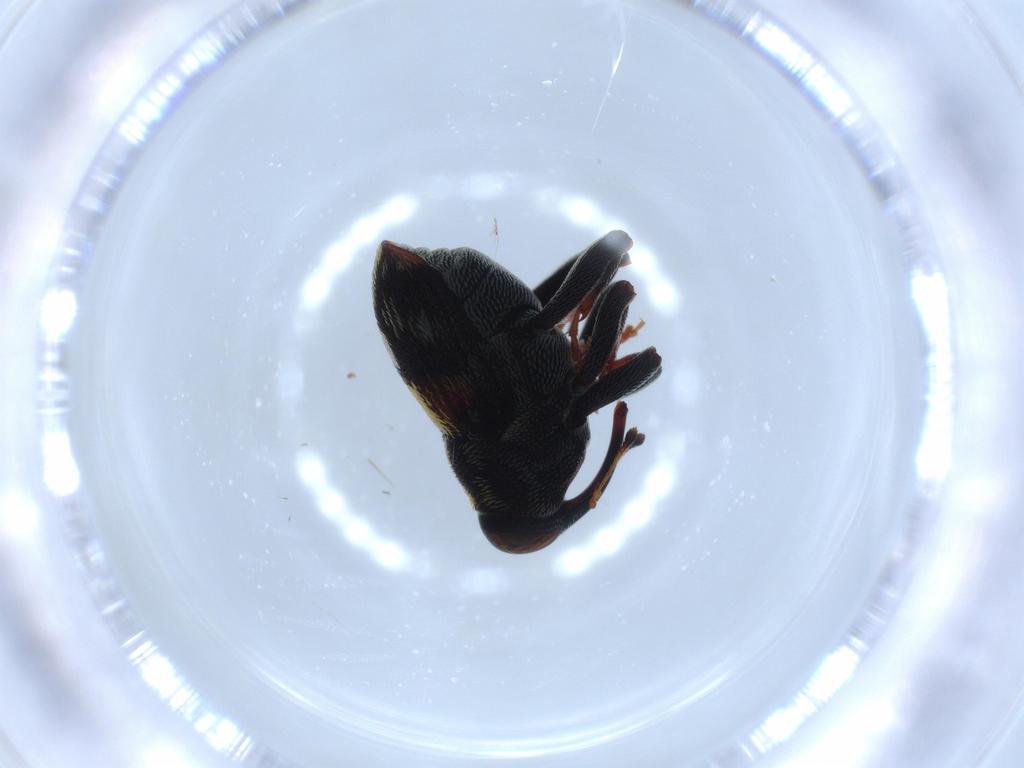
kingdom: Animalia
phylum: Arthropoda
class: Insecta
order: Coleoptera
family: Curculionidae
